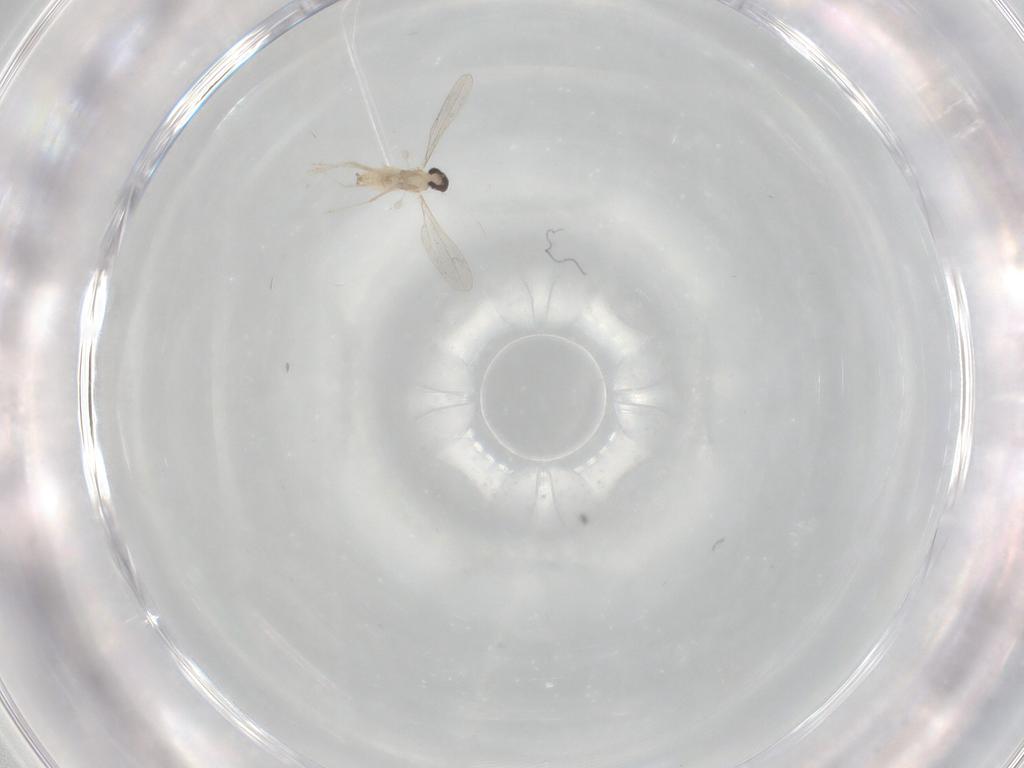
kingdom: Animalia
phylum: Arthropoda
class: Insecta
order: Diptera
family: Cecidomyiidae
